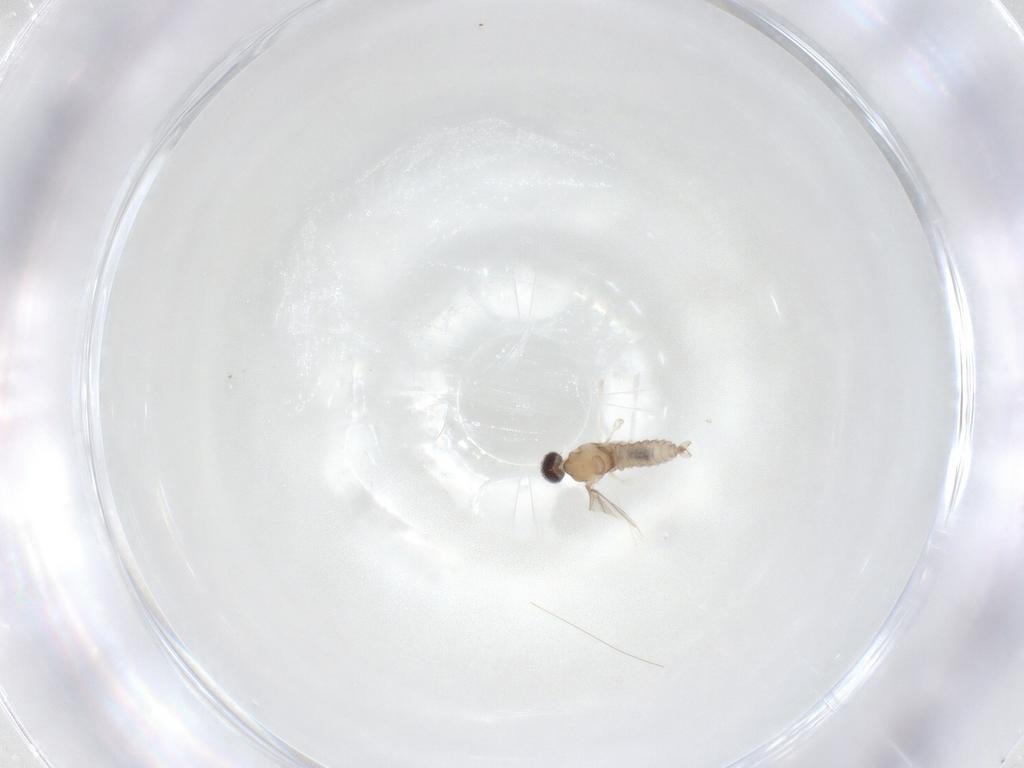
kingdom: Animalia
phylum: Arthropoda
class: Insecta
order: Diptera
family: Cecidomyiidae
